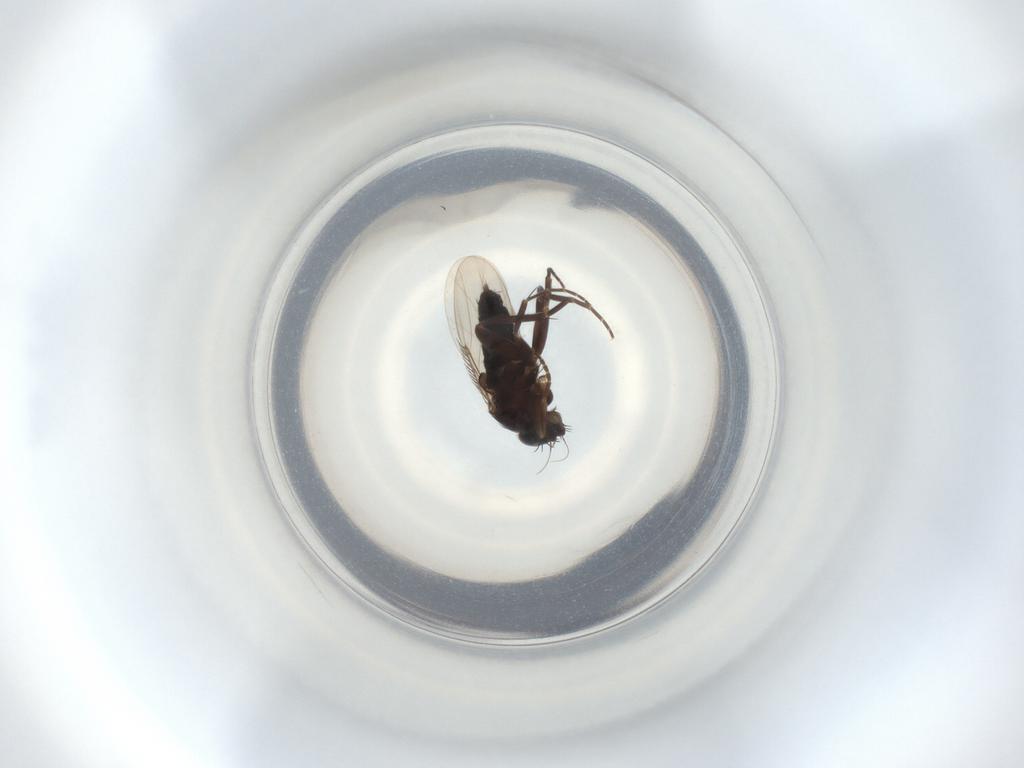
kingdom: Animalia
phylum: Arthropoda
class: Insecta
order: Diptera
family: Phoridae
